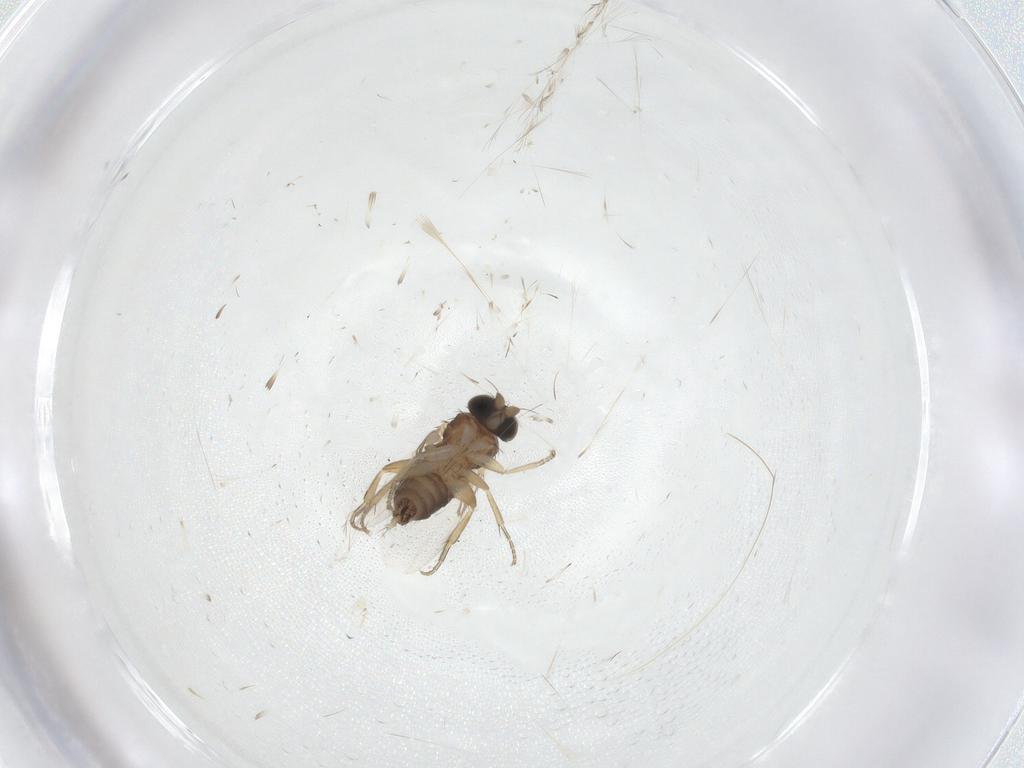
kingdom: Animalia
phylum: Arthropoda
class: Insecta
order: Diptera
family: Phoridae
